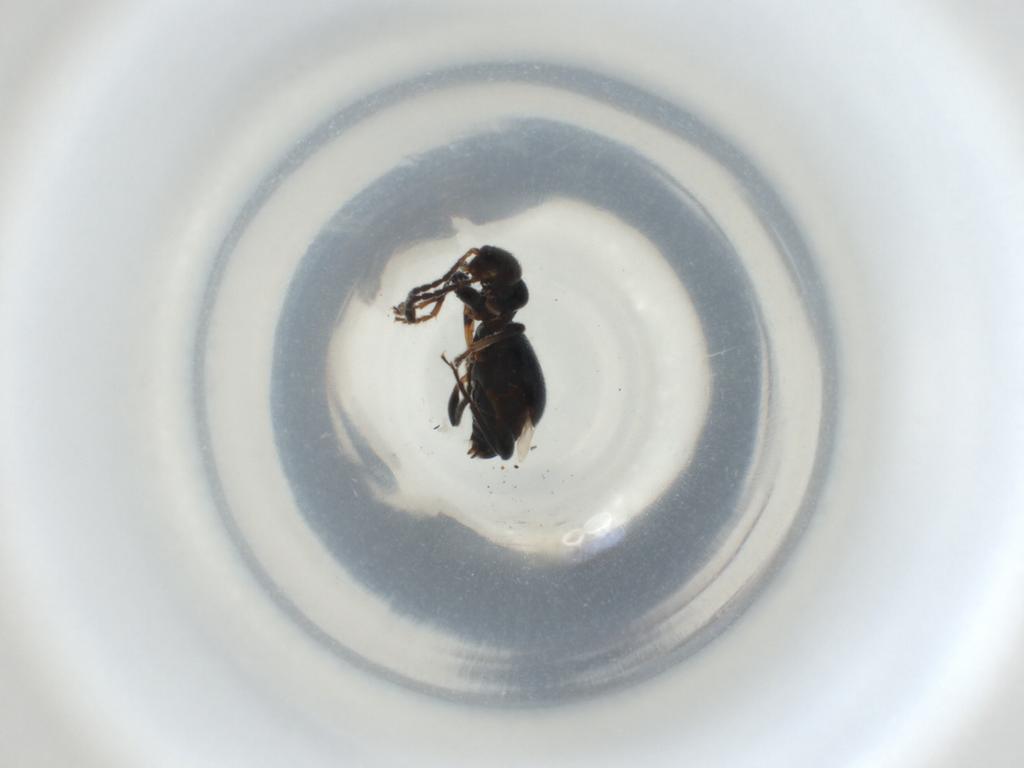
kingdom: Animalia
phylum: Arthropoda
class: Insecta
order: Coleoptera
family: Anthicidae
